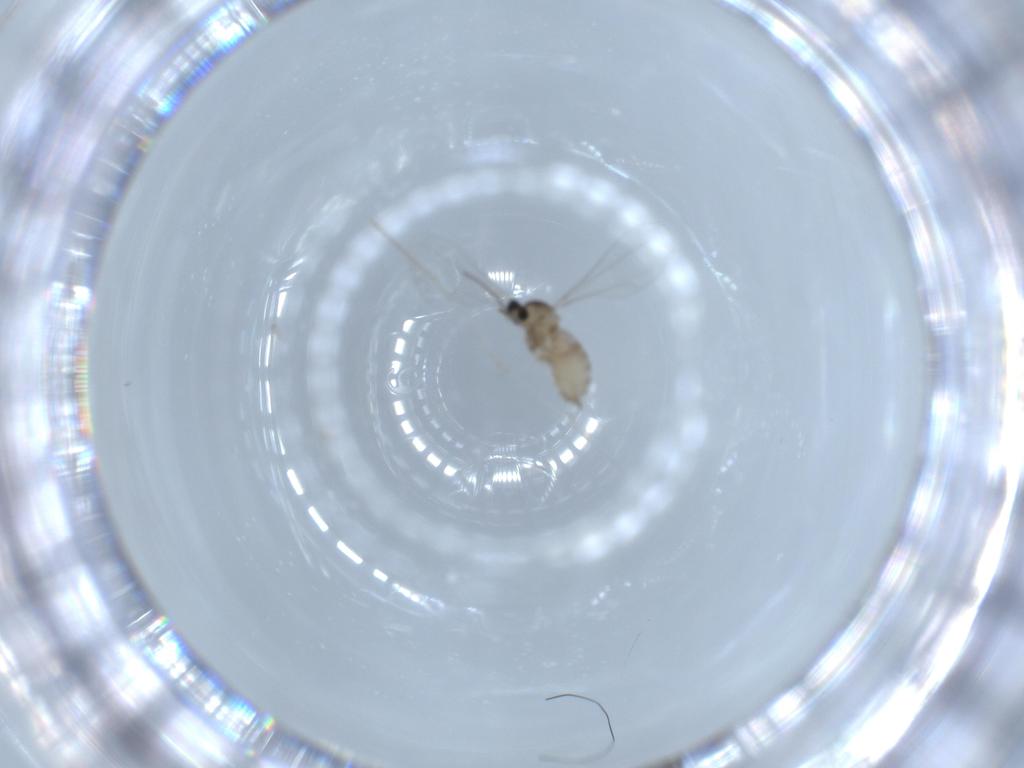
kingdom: Animalia
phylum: Arthropoda
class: Insecta
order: Diptera
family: Cecidomyiidae
